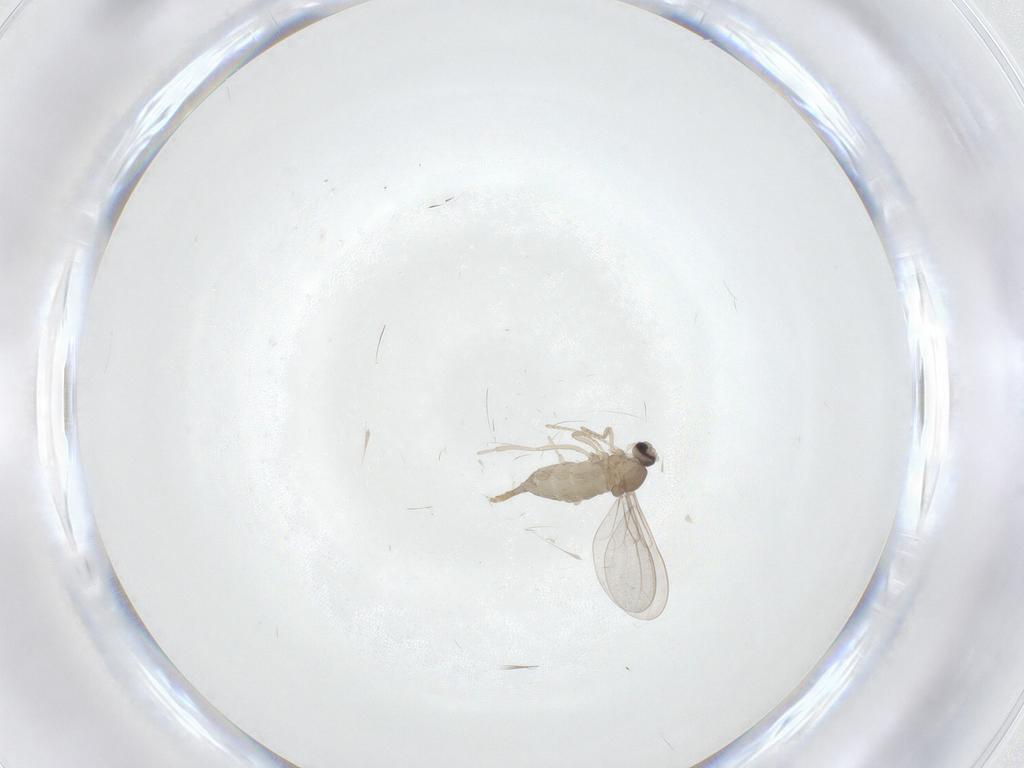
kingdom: Animalia
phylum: Arthropoda
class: Insecta
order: Diptera
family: Cecidomyiidae
